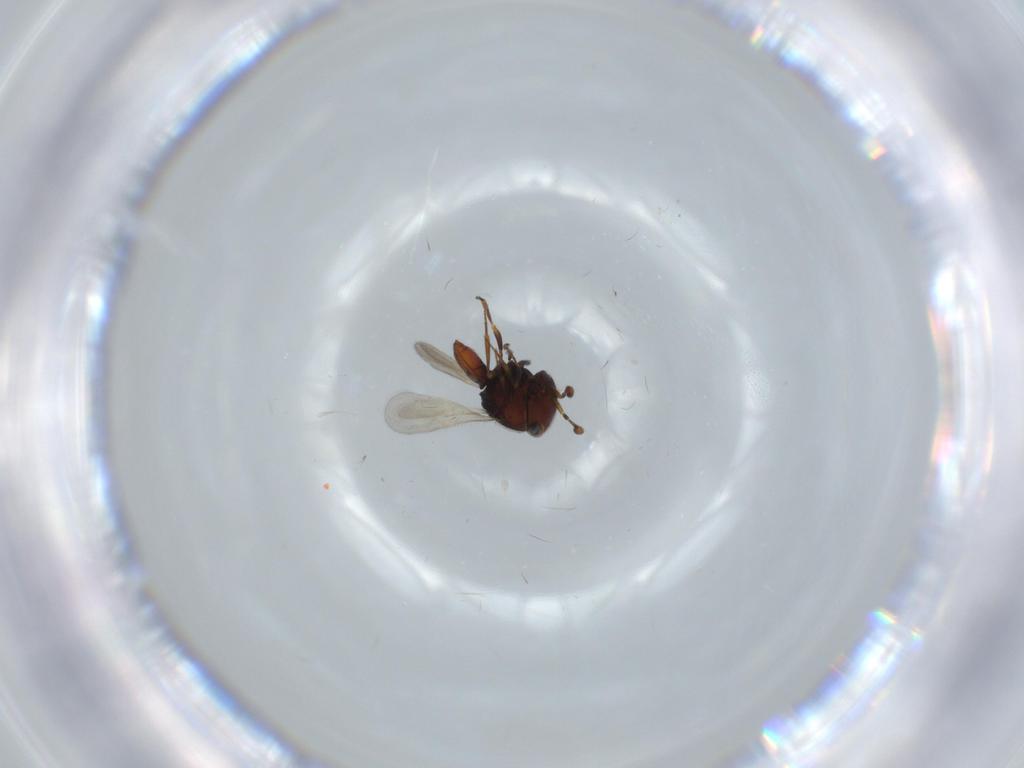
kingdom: Animalia
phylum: Arthropoda
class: Insecta
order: Hymenoptera
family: Scelionidae
